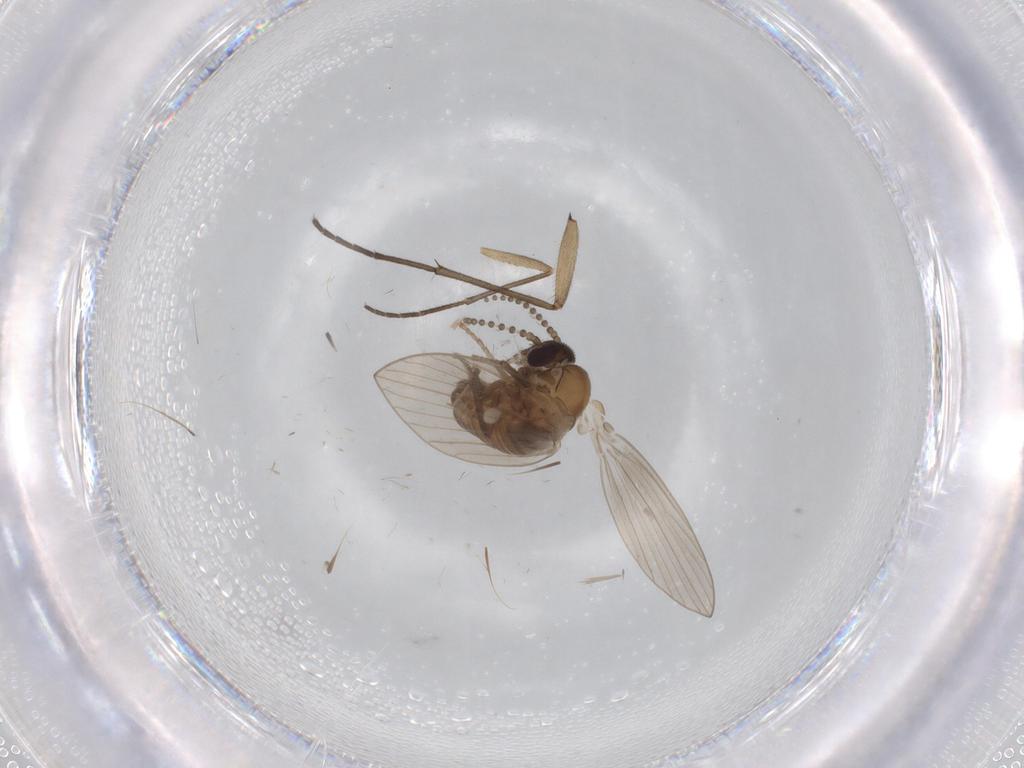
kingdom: Animalia
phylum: Arthropoda
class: Insecta
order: Diptera
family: Sciaridae
